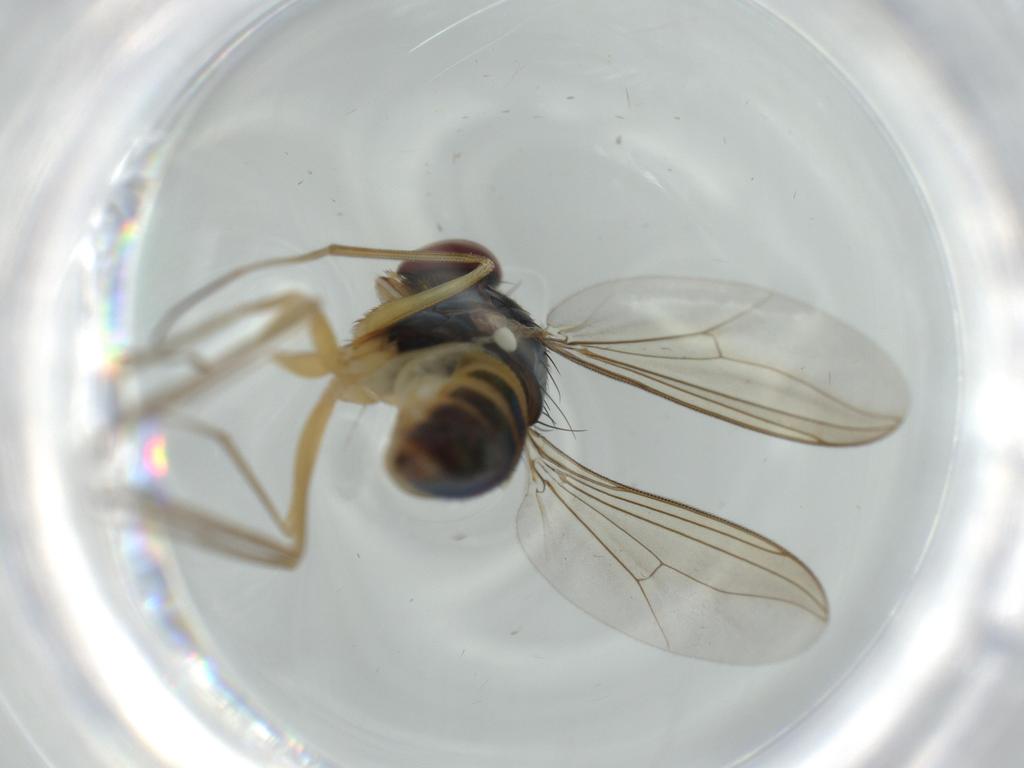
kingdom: Animalia
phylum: Arthropoda
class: Insecta
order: Diptera
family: Dolichopodidae
